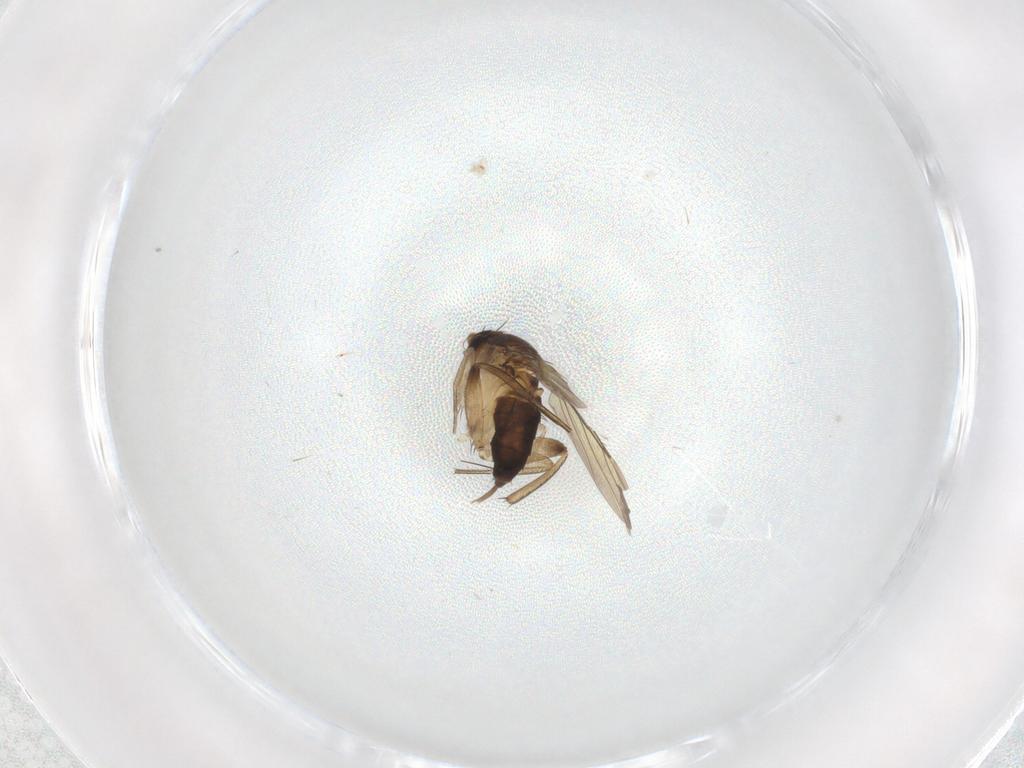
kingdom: Animalia
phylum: Arthropoda
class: Insecta
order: Diptera
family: Phoridae
